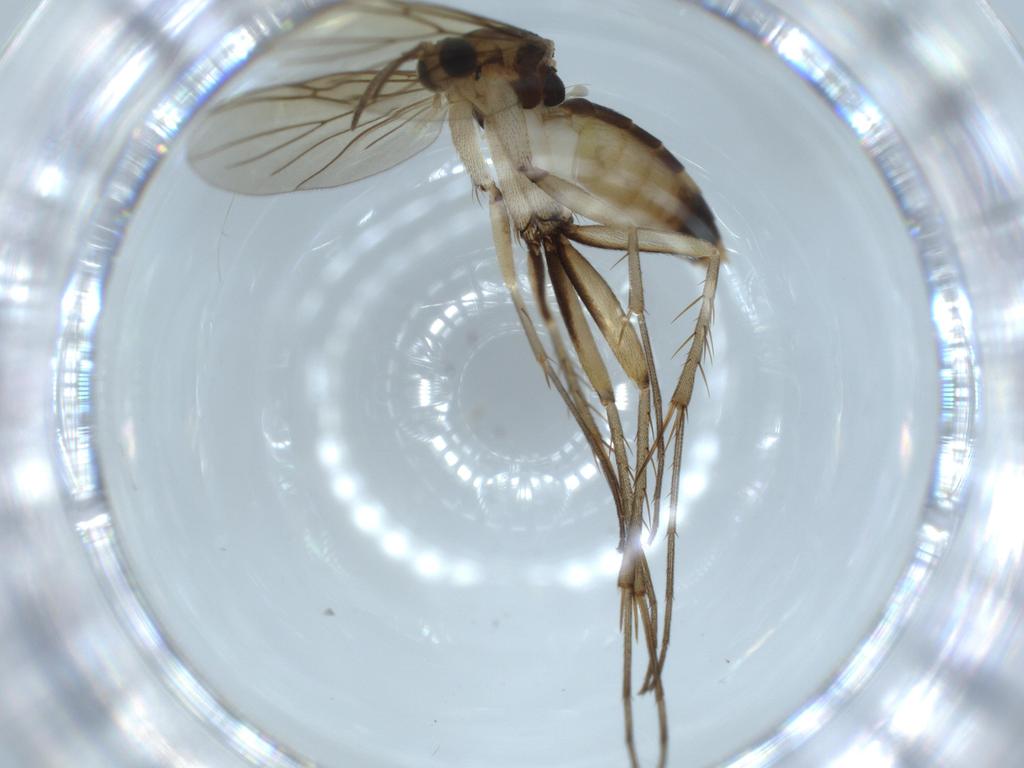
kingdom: Animalia
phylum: Arthropoda
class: Insecta
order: Diptera
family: Mycetophilidae
